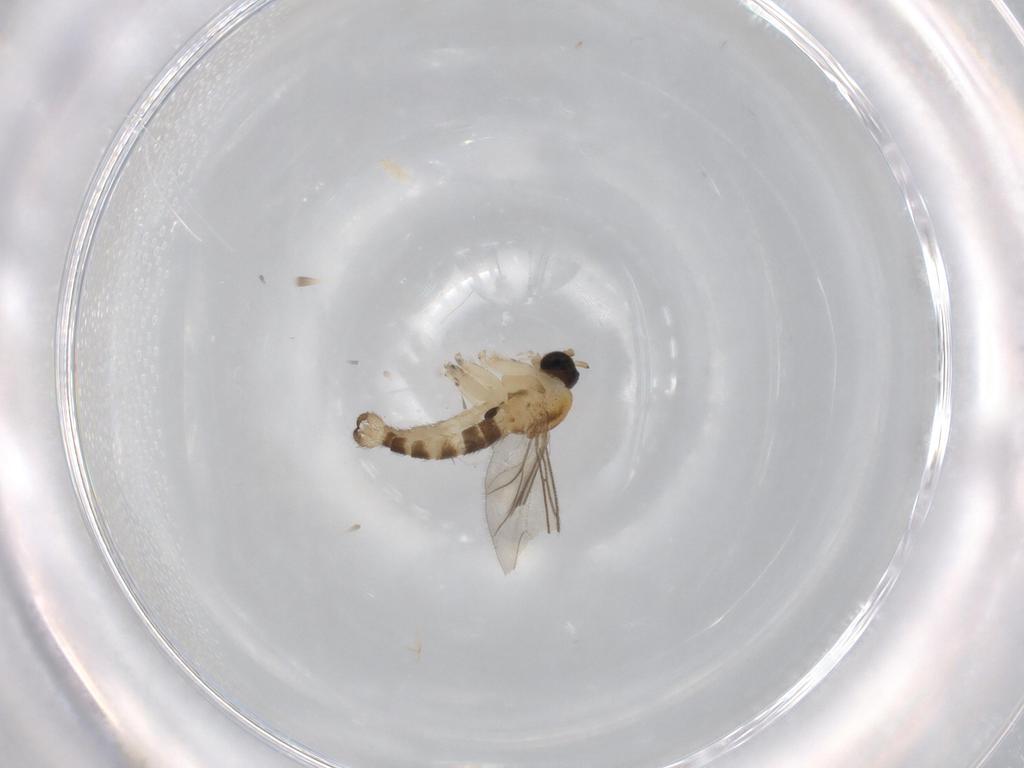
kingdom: Animalia
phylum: Arthropoda
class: Insecta
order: Diptera
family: Sciaridae
